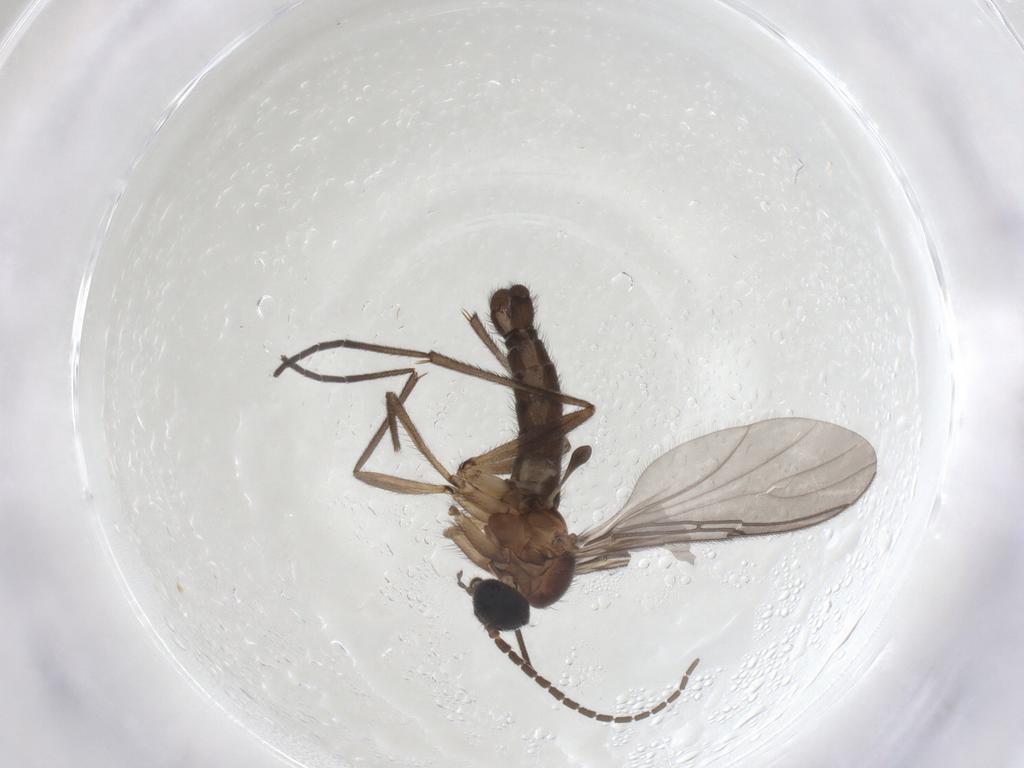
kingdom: Animalia
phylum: Arthropoda
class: Insecta
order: Diptera
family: Sciaridae
